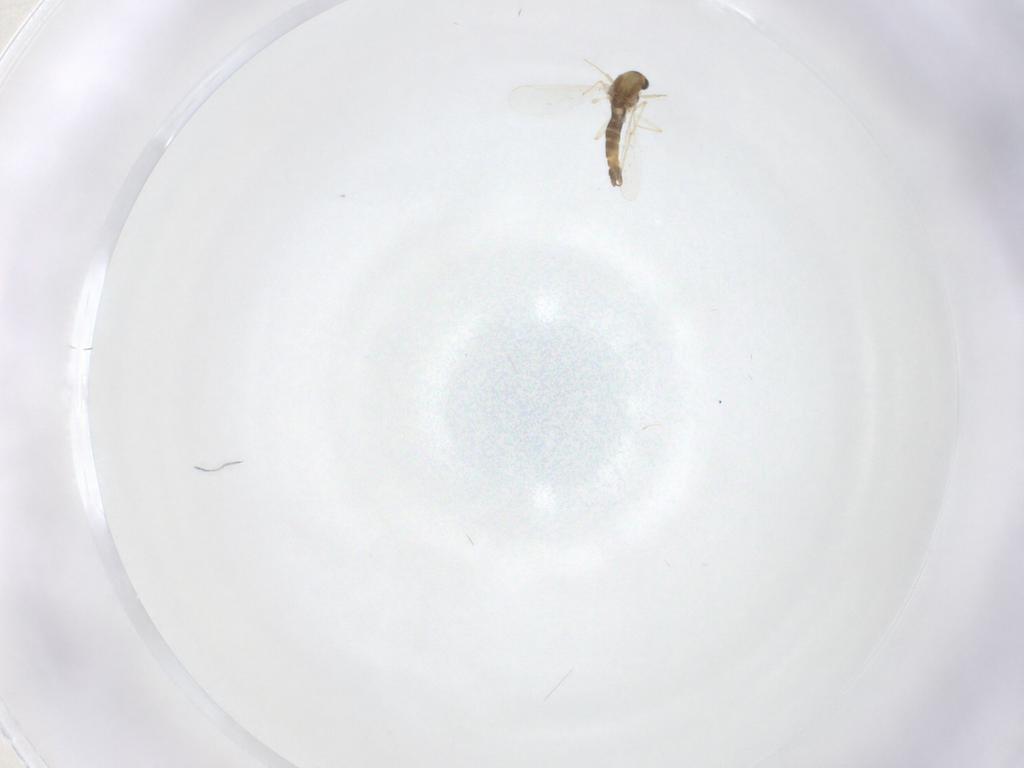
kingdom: Animalia
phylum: Arthropoda
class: Insecta
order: Diptera
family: Chironomidae
